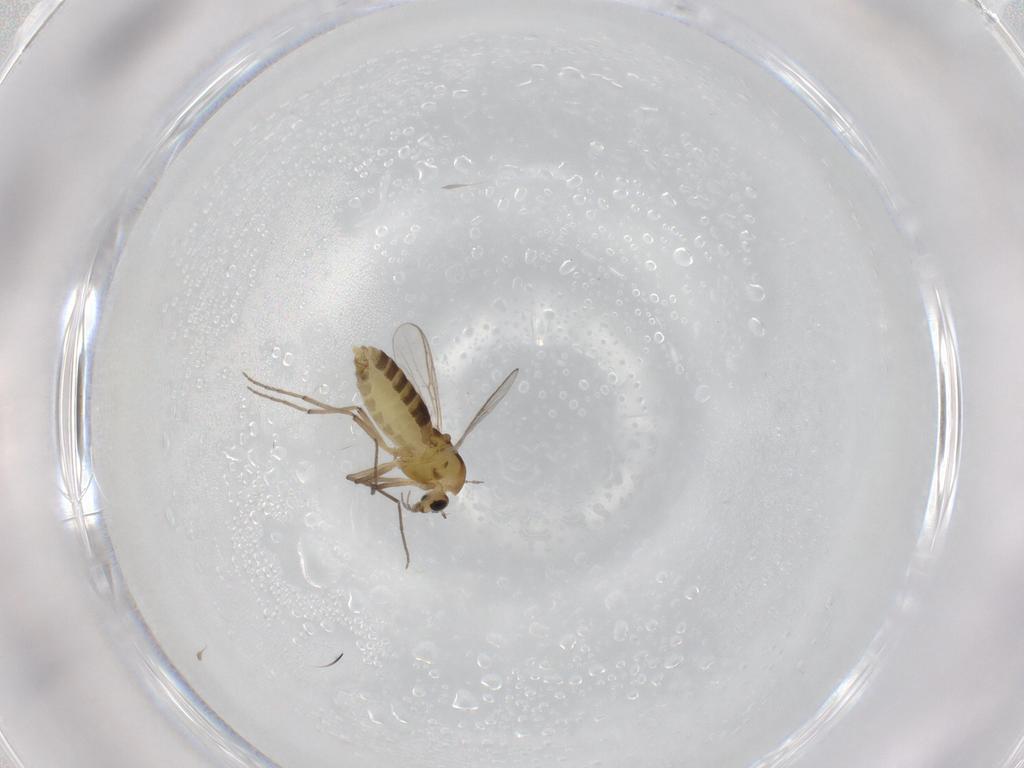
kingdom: Animalia
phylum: Arthropoda
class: Insecta
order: Diptera
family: Chironomidae
